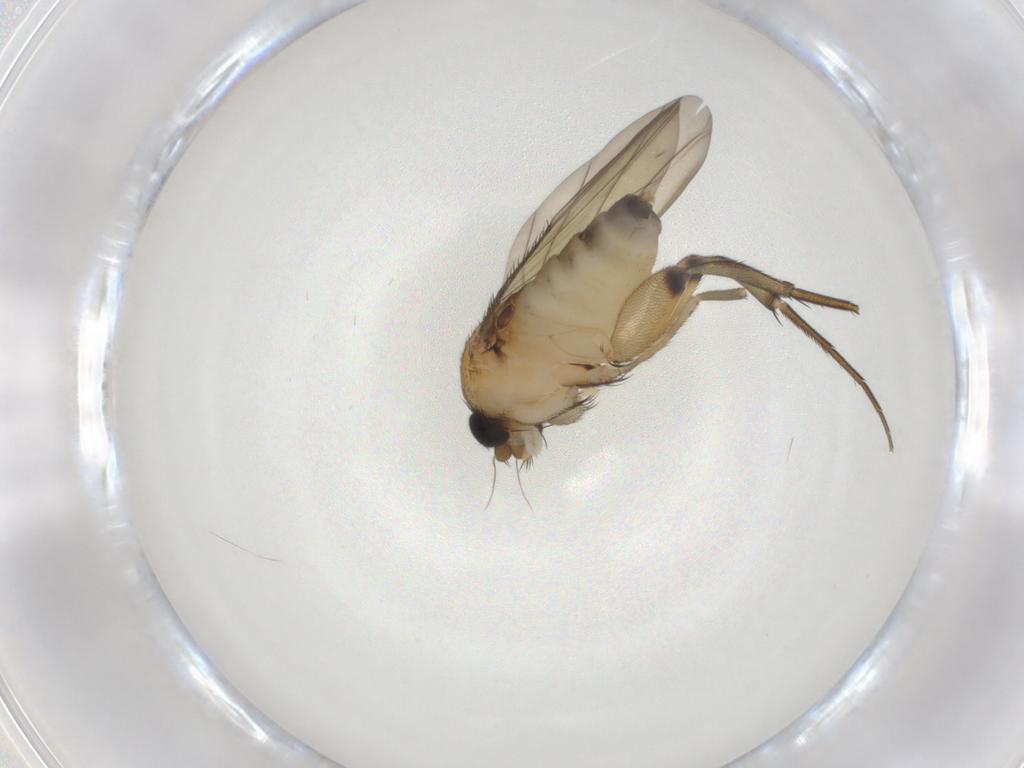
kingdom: Animalia
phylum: Arthropoda
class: Insecta
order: Diptera
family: Phoridae
